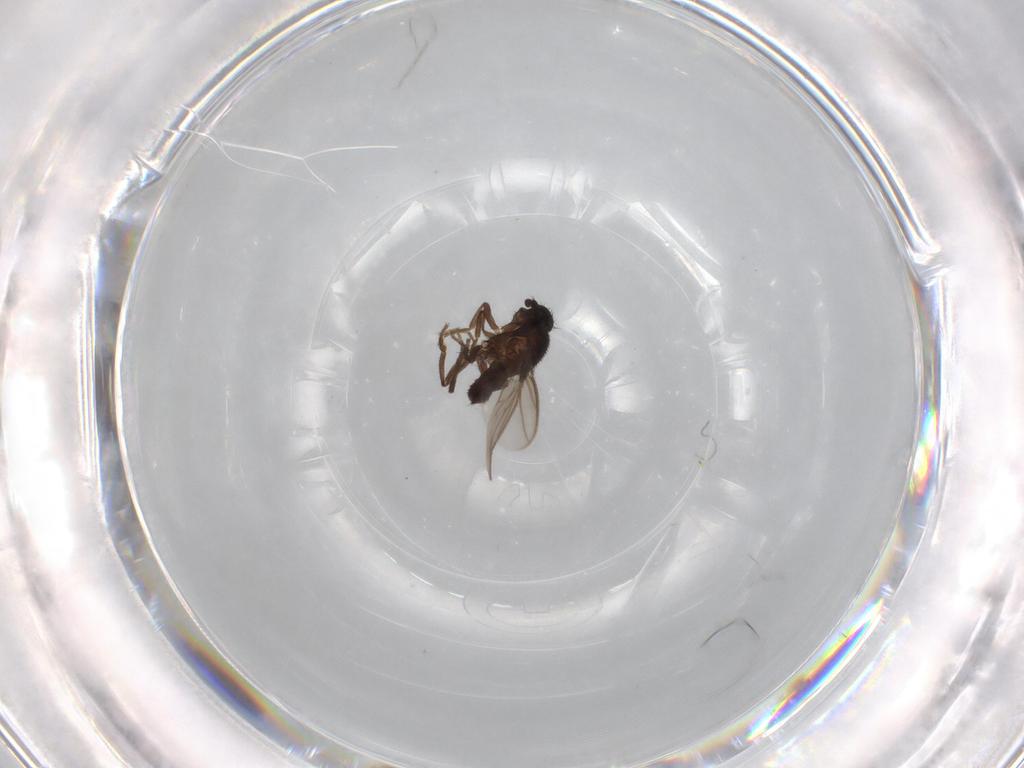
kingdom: Animalia
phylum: Arthropoda
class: Insecta
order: Diptera
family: Sphaeroceridae
